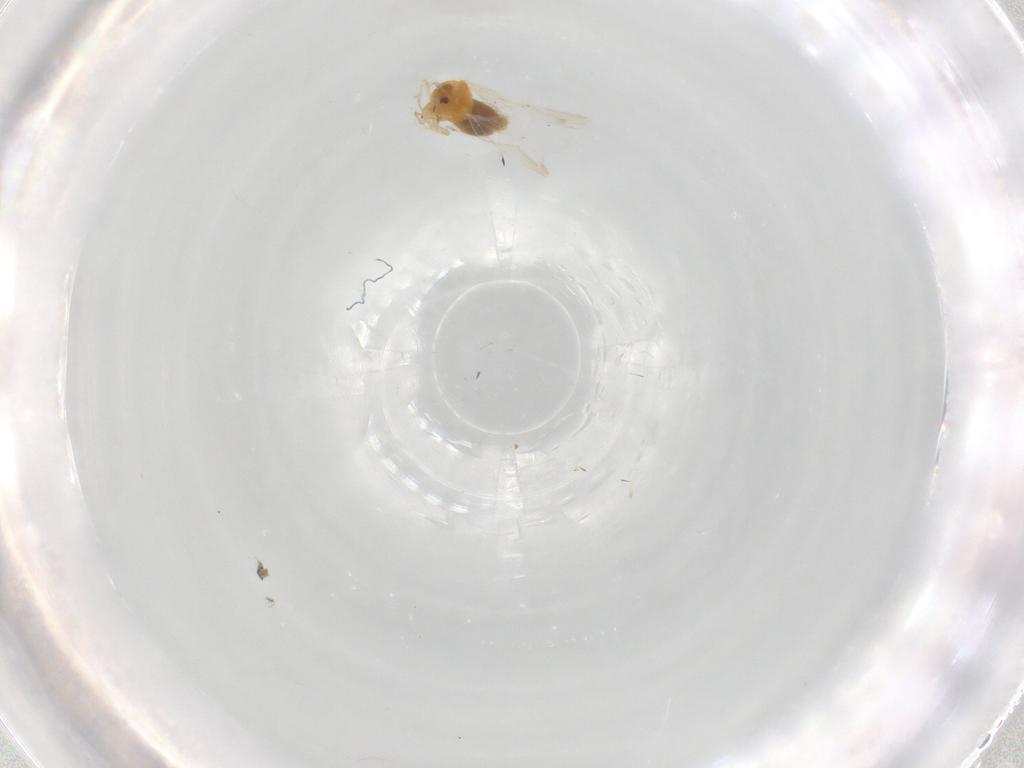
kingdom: Animalia
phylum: Arthropoda
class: Insecta
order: Hemiptera
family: Aleyrodidae
